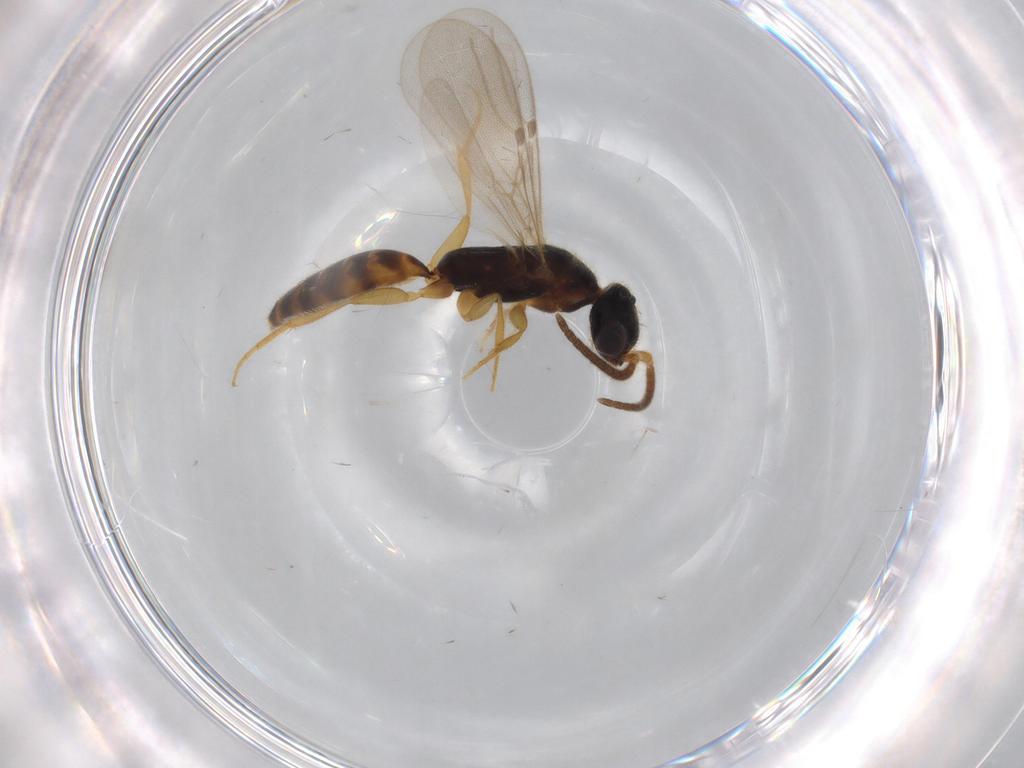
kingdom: Animalia
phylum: Arthropoda
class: Insecta
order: Hymenoptera
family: Bethylidae
